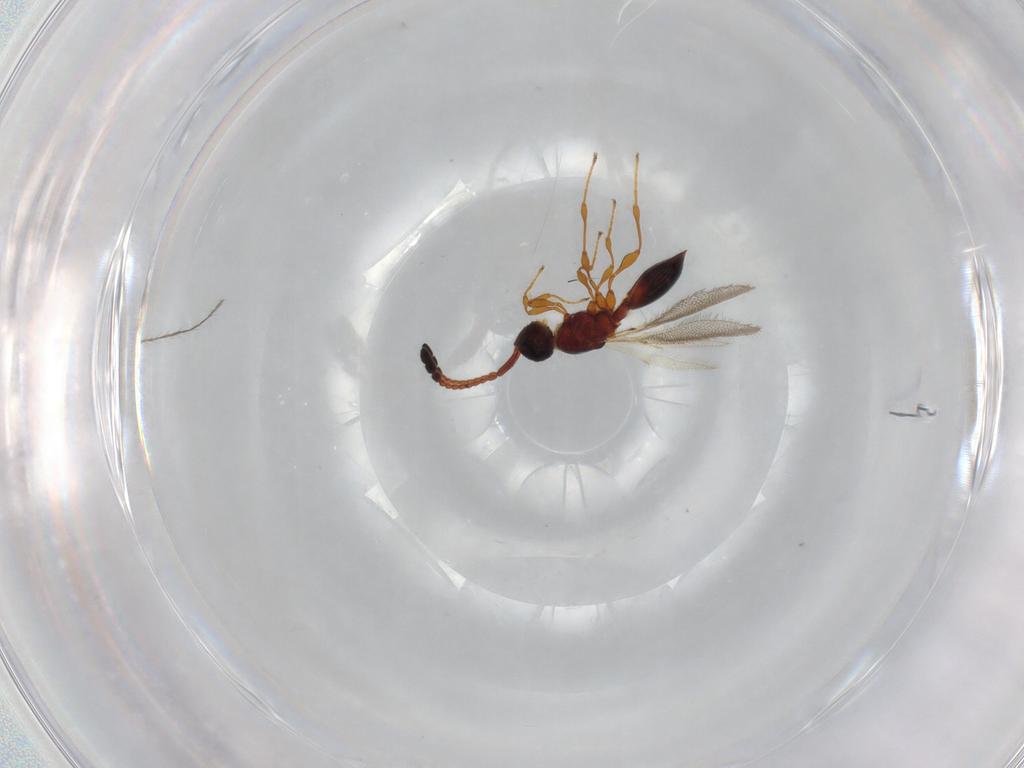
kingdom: Animalia
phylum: Arthropoda
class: Insecta
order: Hymenoptera
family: Diapriidae
